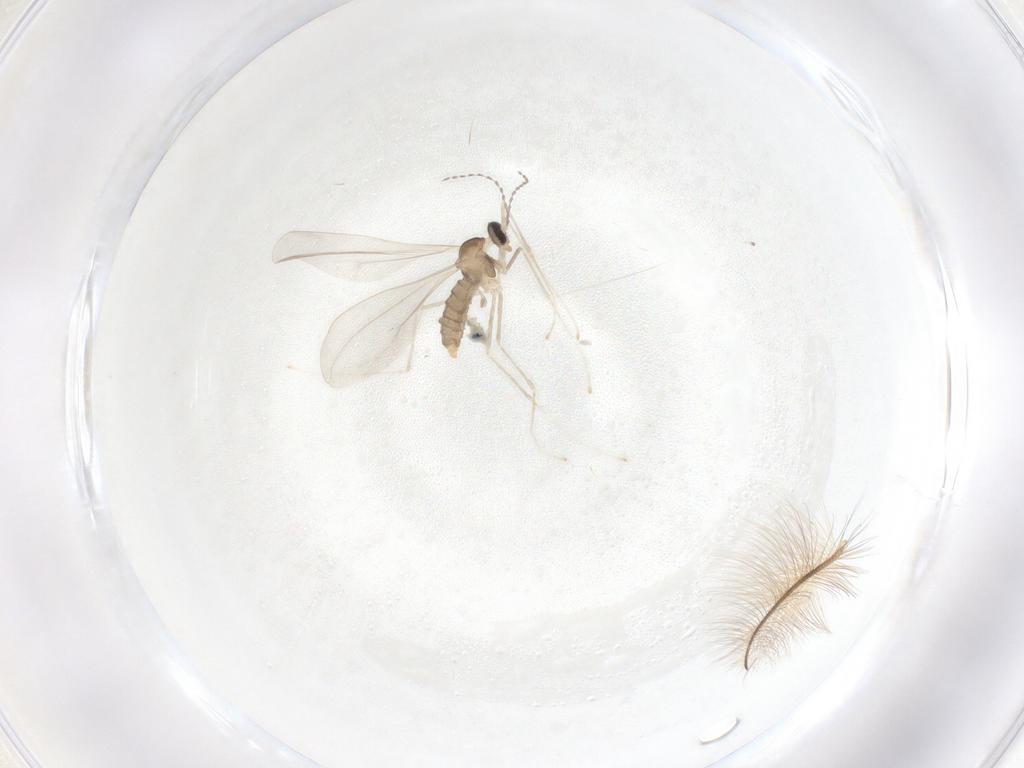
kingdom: Animalia
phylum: Arthropoda
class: Insecta
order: Diptera
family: Cecidomyiidae
